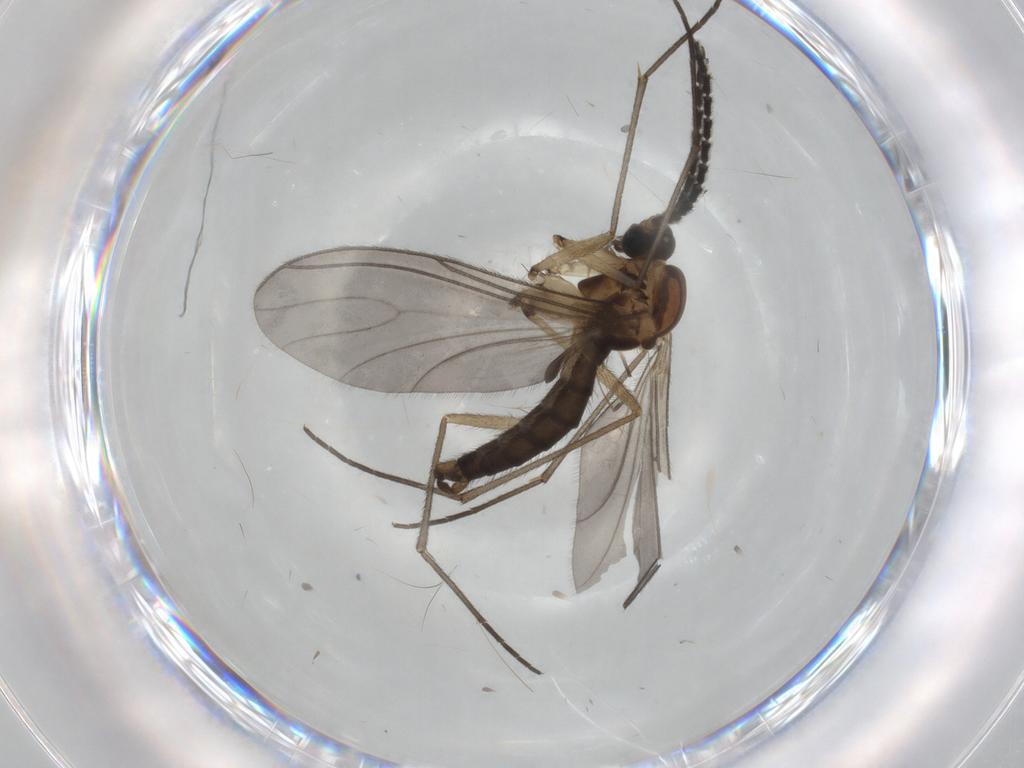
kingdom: Animalia
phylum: Arthropoda
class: Insecta
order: Diptera
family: Sciaridae
